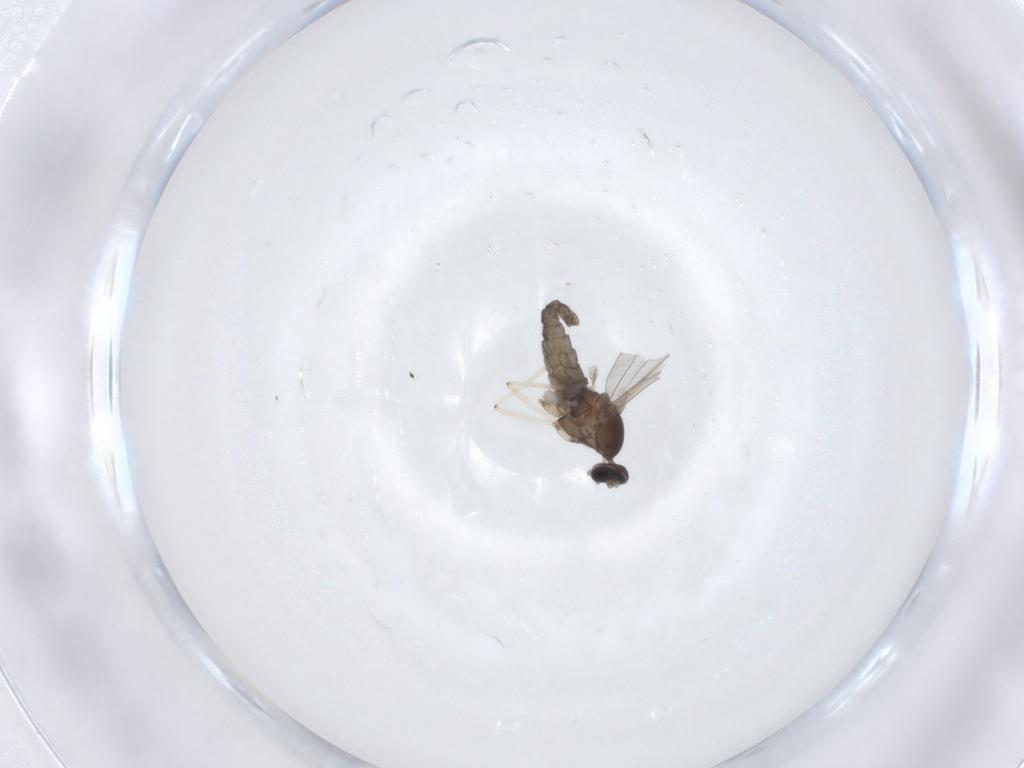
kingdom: Animalia
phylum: Arthropoda
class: Insecta
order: Diptera
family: Cecidomyiidae
